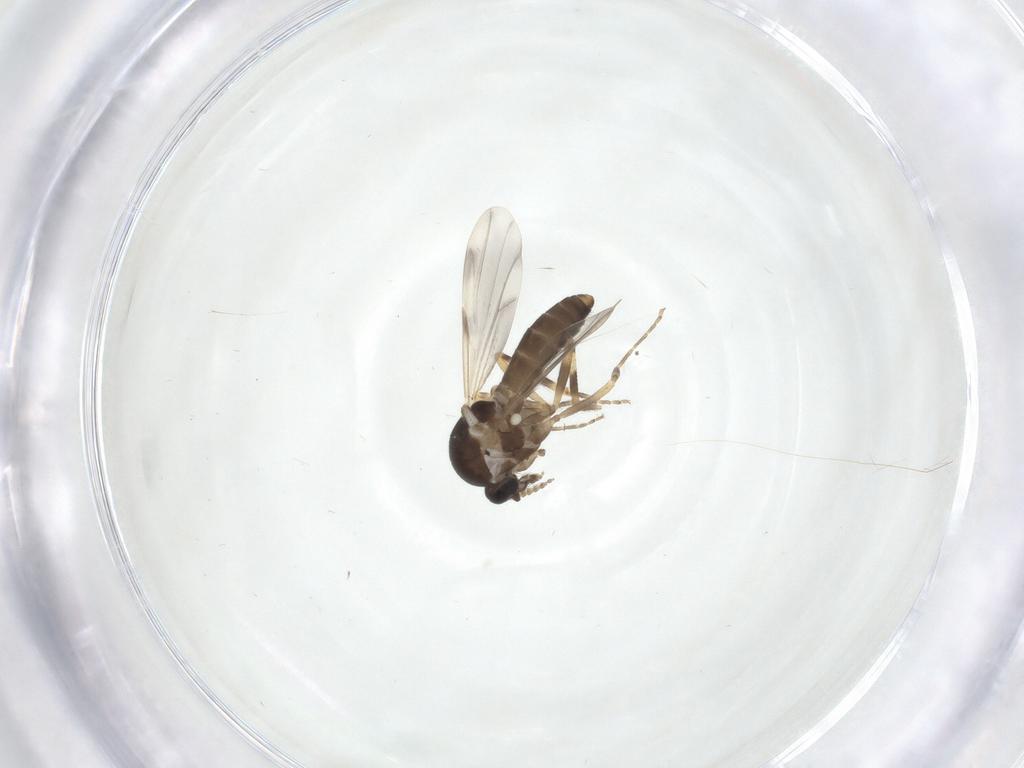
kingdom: Animalia
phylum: Arthropoda
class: Insecta
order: Diptera
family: Ceratopogonidae
